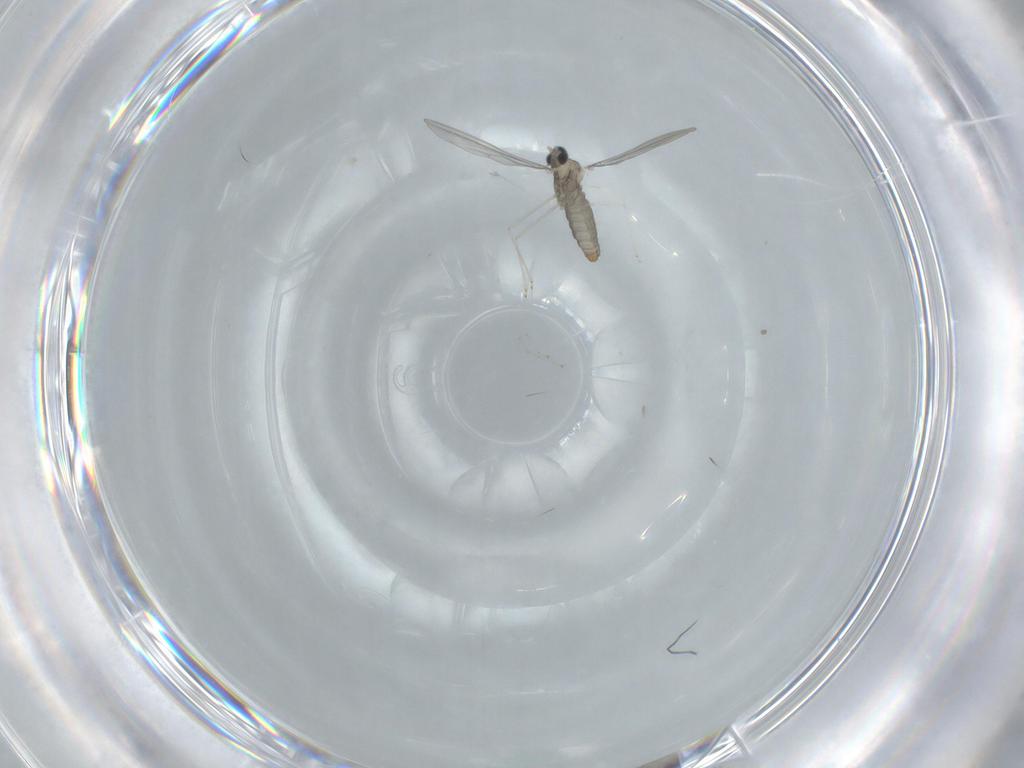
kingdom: Animalia
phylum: Arthropoda
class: Insecta
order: Diptera
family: Cecidomyiidae
